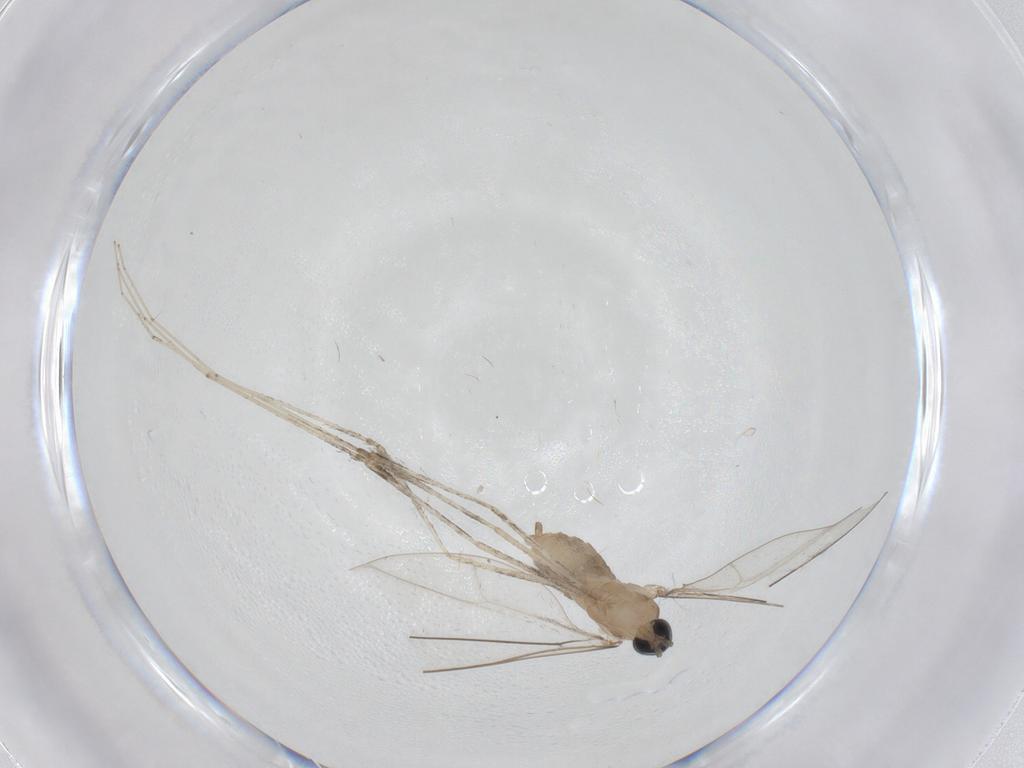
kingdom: Animalia
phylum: Arthropoda
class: Insecta
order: Diptera
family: Cecidomyiidae
